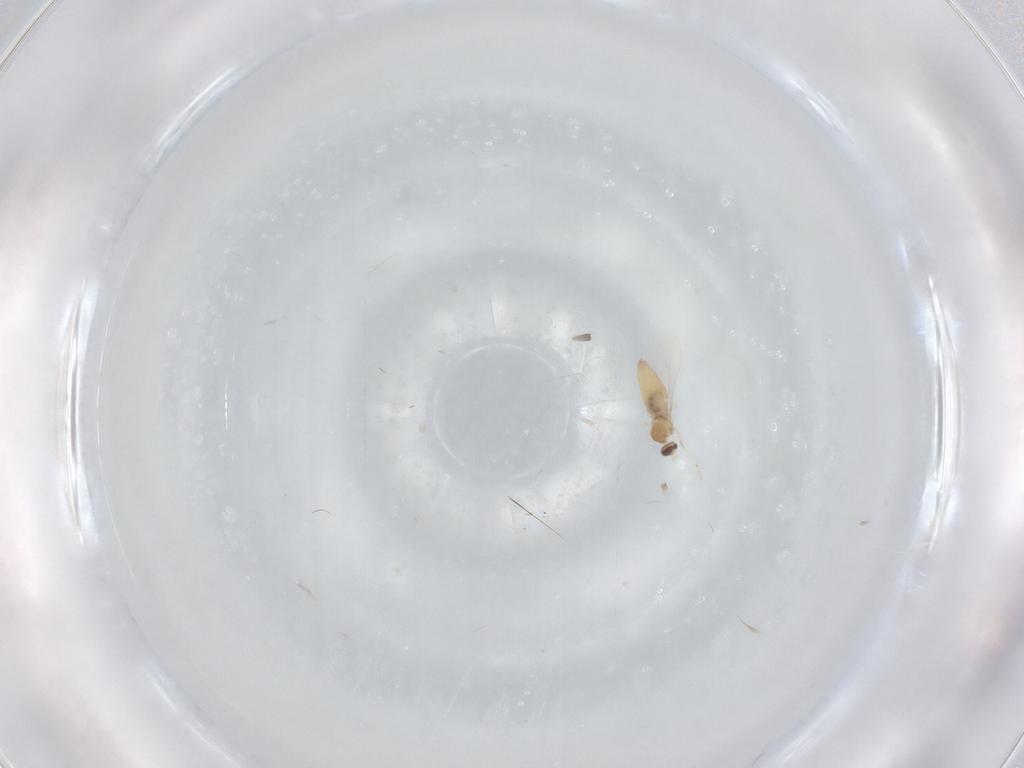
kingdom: Animalia
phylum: Arthropoda
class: Insecta
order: Diptera
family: Cecidomyiidae
